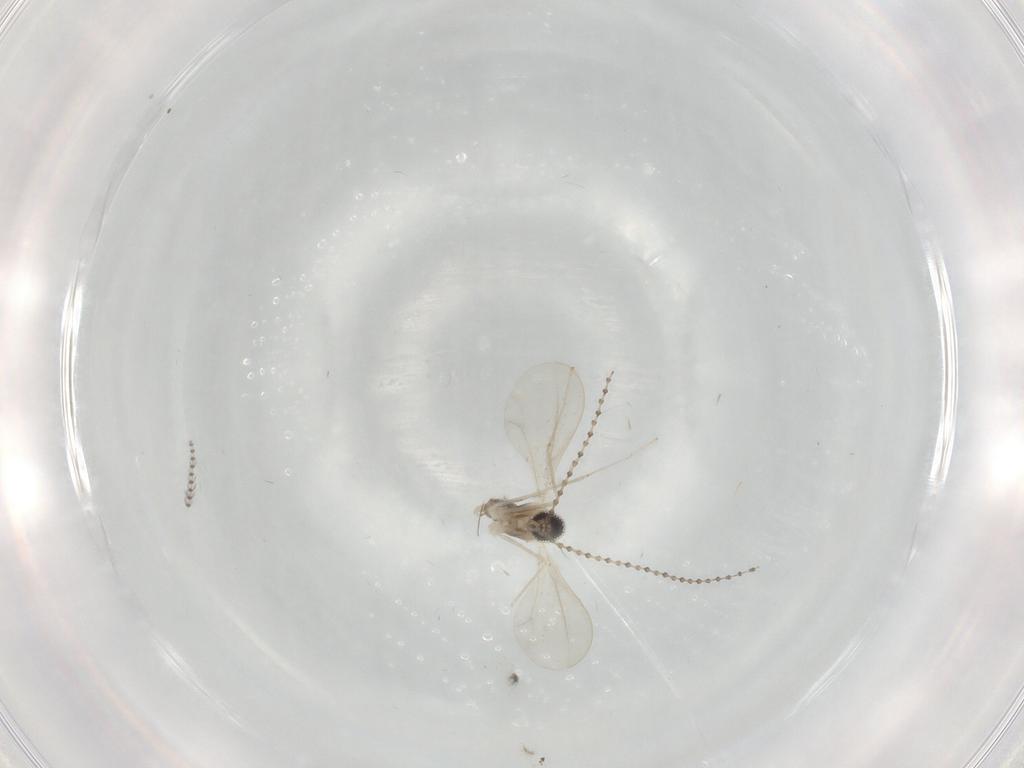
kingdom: Animalia
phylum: Arthropoda
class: Insecta
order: Diptera
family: Cecidomyiidae
